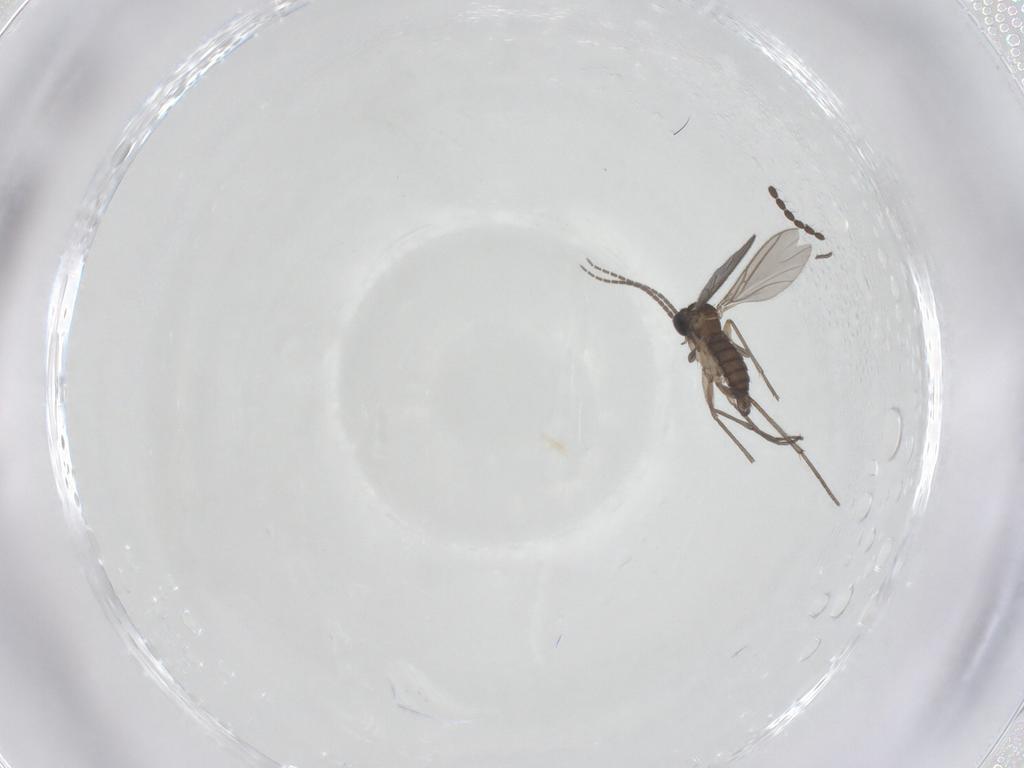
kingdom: Animalia
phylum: Arthropoda
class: Insecta
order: Diptera
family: Sciaridae
